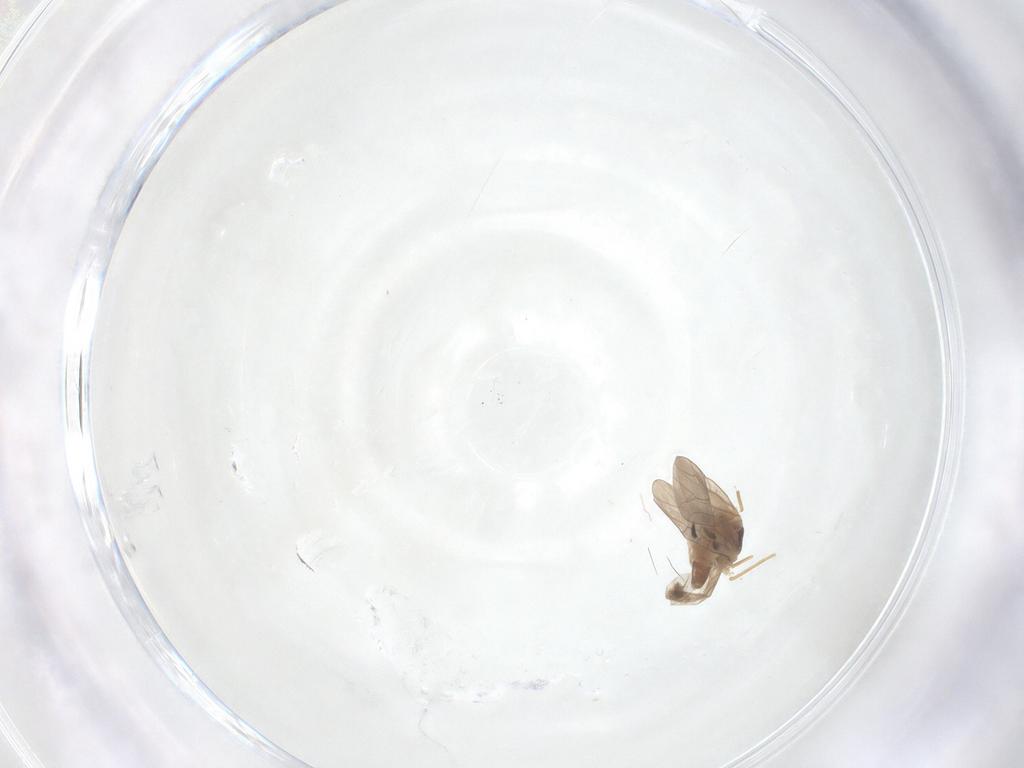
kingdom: Animalia
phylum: Arthropoda
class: Insecta
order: Psocodea
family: Lepidopsocidae
